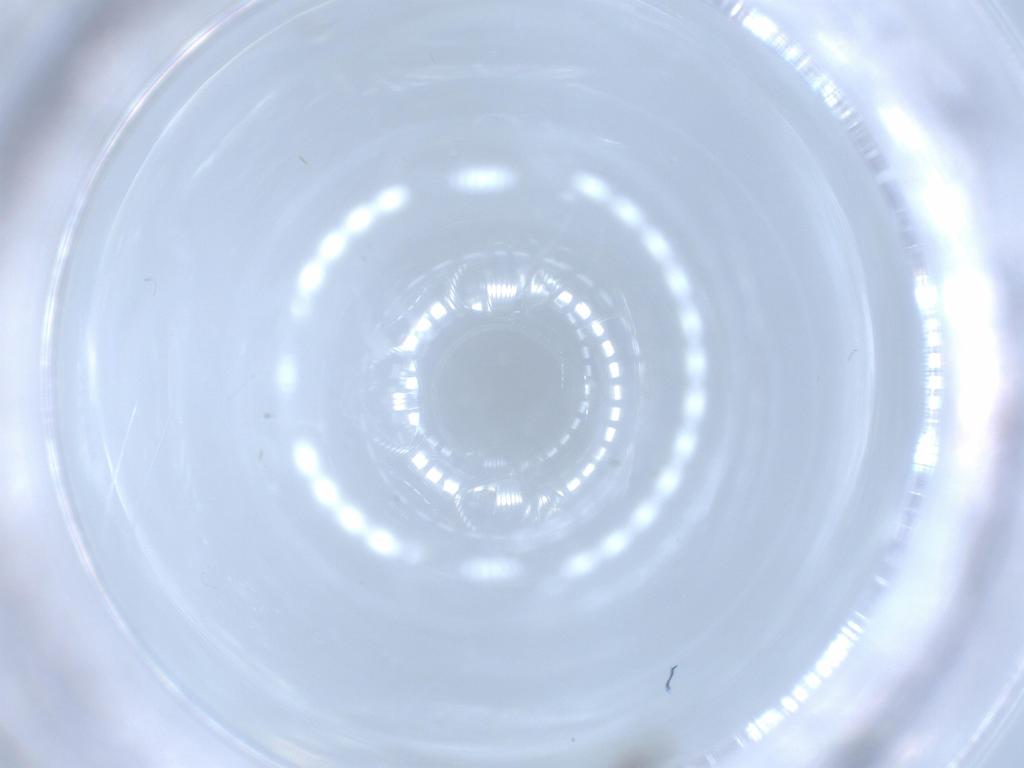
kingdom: Animalia
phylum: Arthropoda
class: Insecta
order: Thysanoptera
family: Heterothripidae
